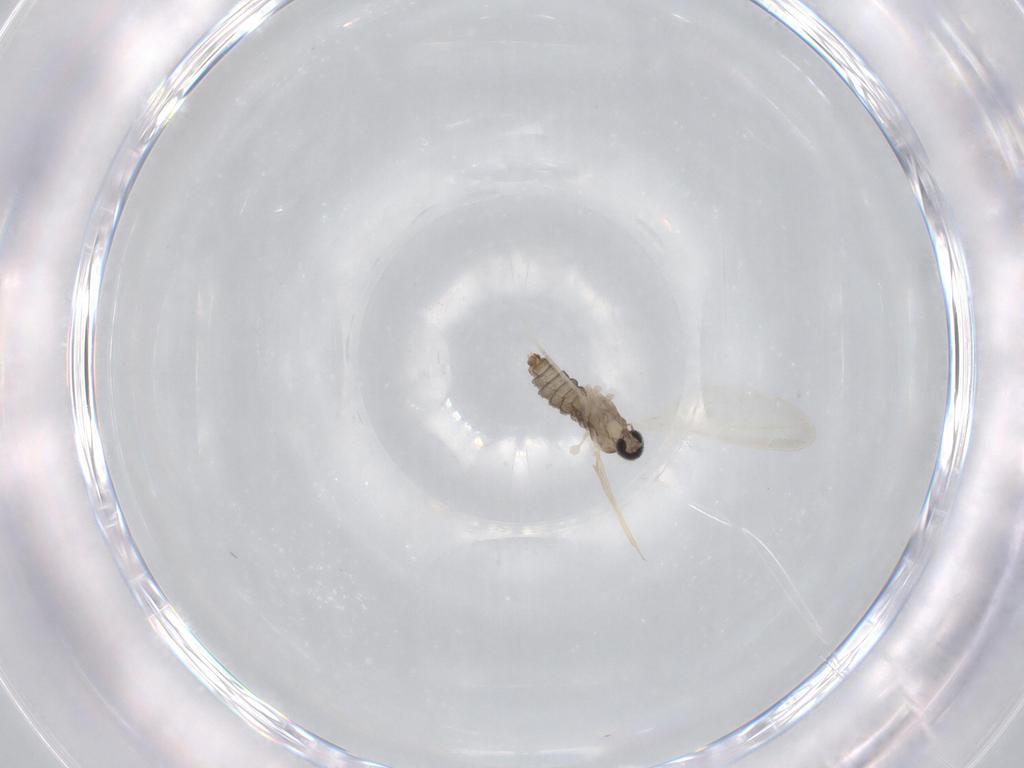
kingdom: Animalia
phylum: Arthropoda
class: Insecta
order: Diptera
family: Cecidomyiidae
